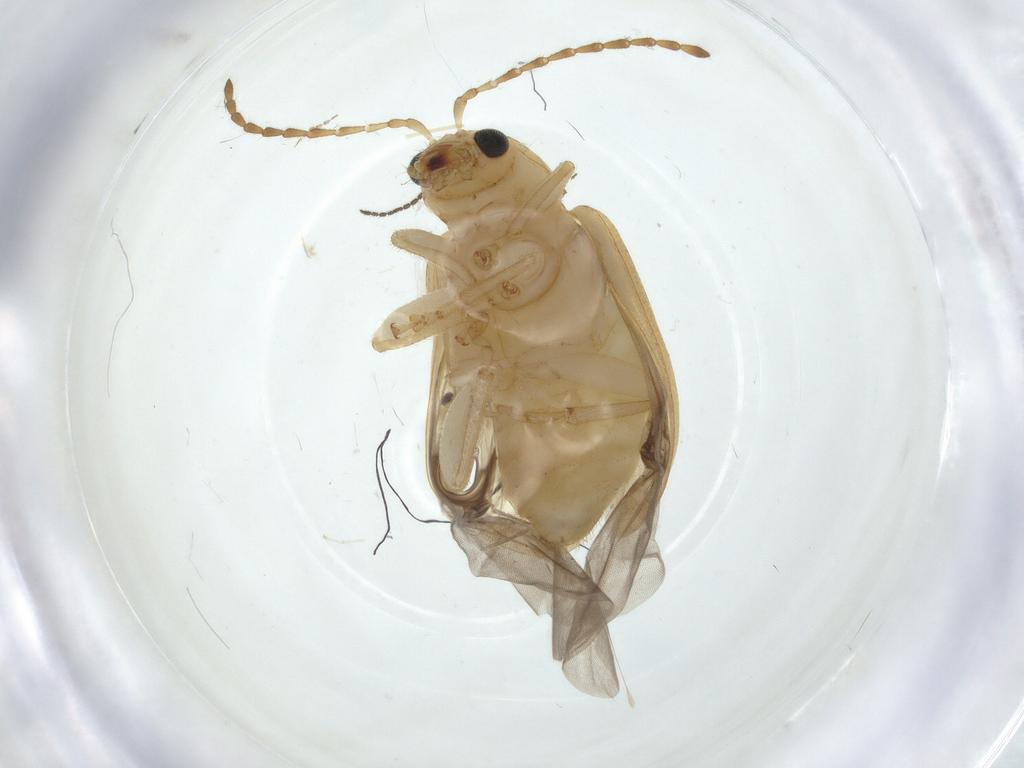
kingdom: Animalia
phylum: Arthropoda
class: Insecta
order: Coleoptera
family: Chrysomelidae
